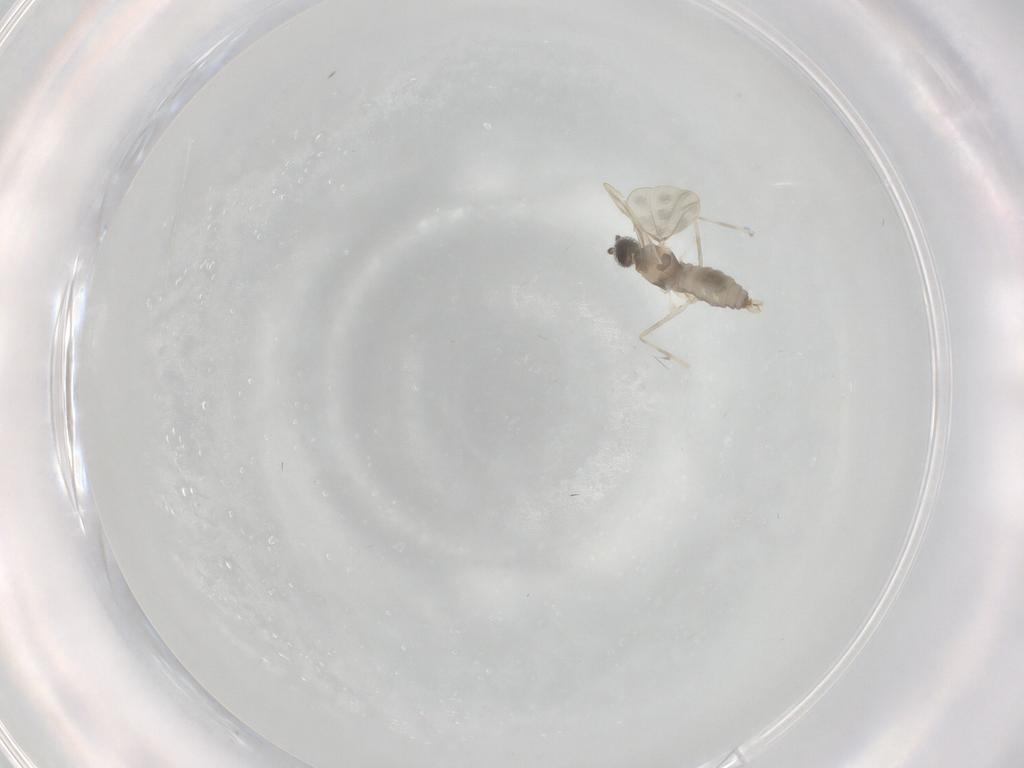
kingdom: Animalia
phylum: Arthropoda
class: Insecta
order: Diptera
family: Cecidomyiidae
